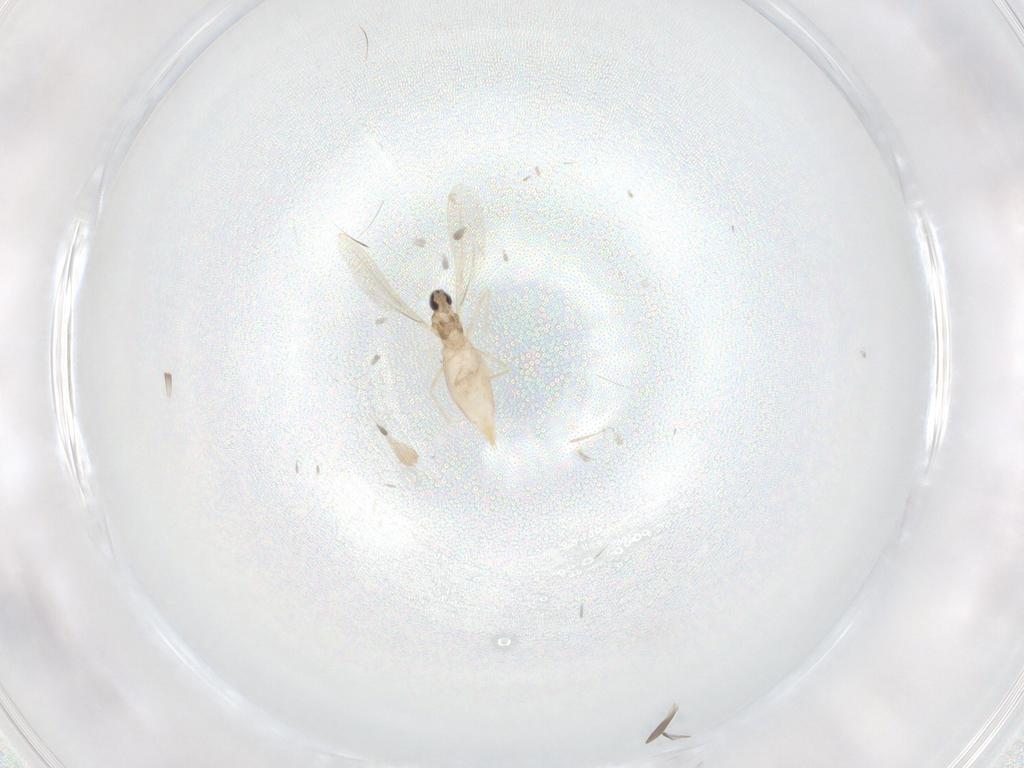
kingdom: Animalia
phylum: Arthropoda
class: Insecta
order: Diptera
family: Cecidomyiidae
